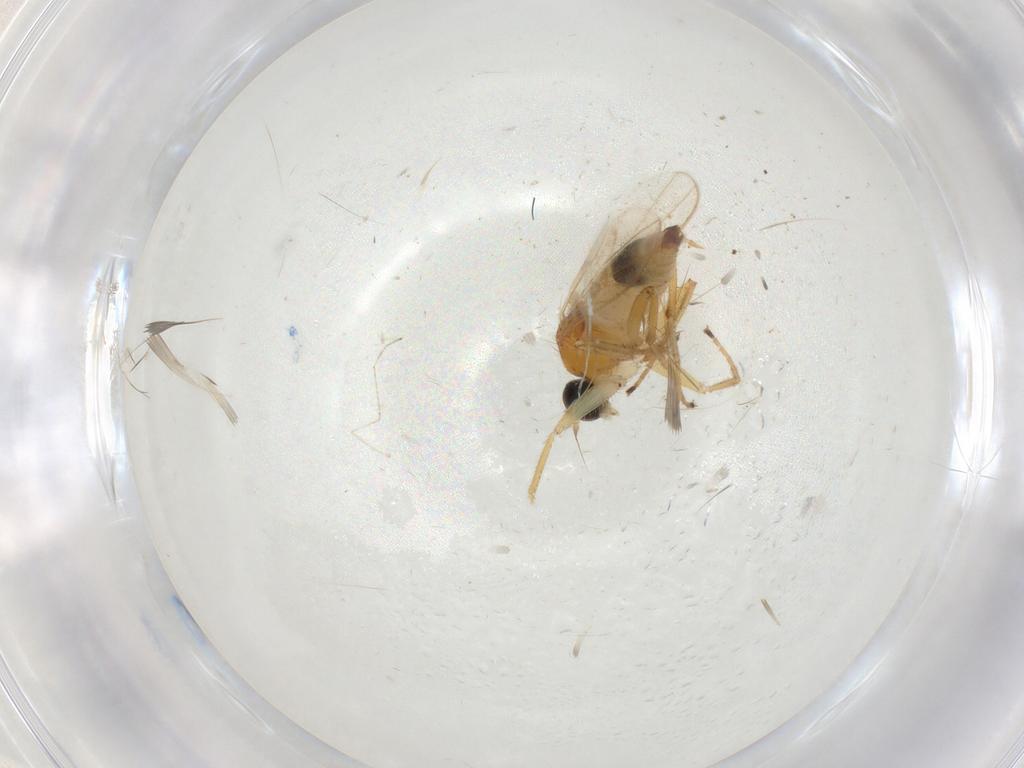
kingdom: Animalia
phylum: Arthropoda
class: Insecta
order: Diptera
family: Hybotidae
